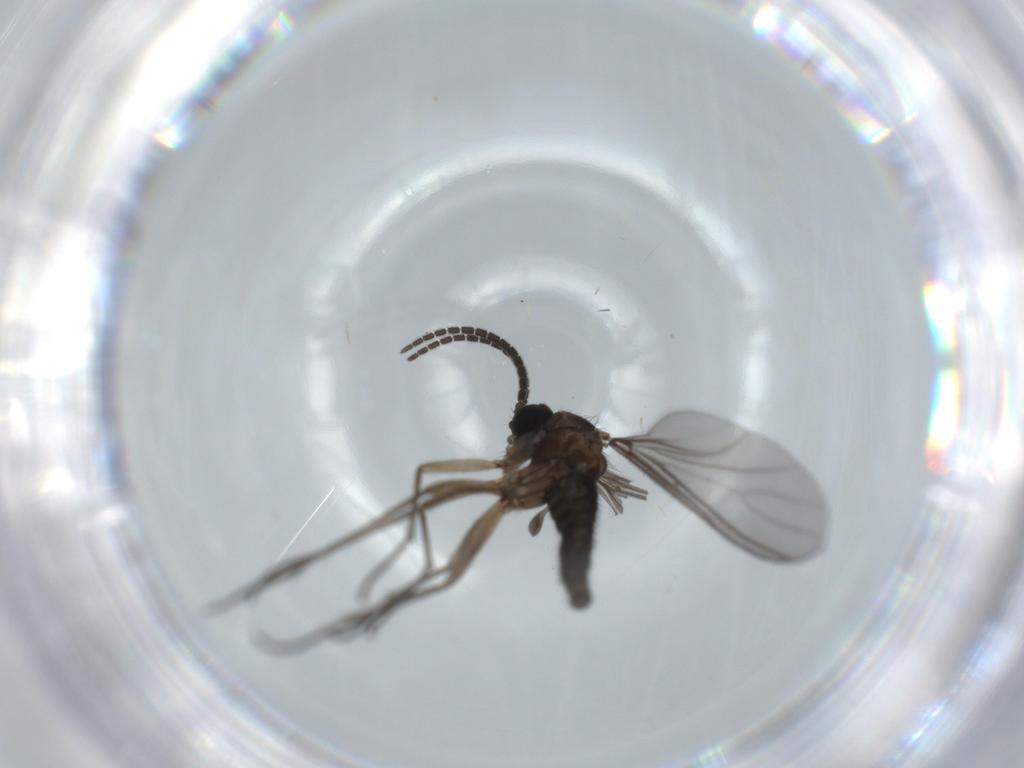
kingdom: Animalia
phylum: Arthropoda
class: Insecta
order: Diptera
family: Sciaridae
